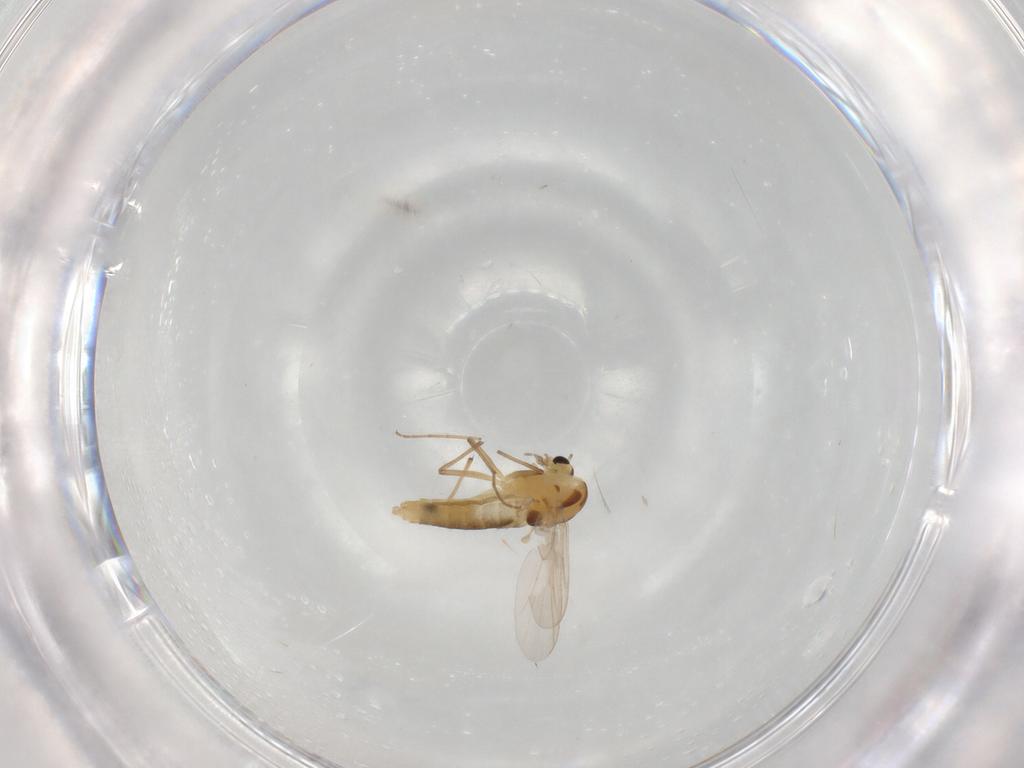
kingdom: Animalia
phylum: Arthropoda
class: Insecta
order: Diptera
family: Chironomidae
